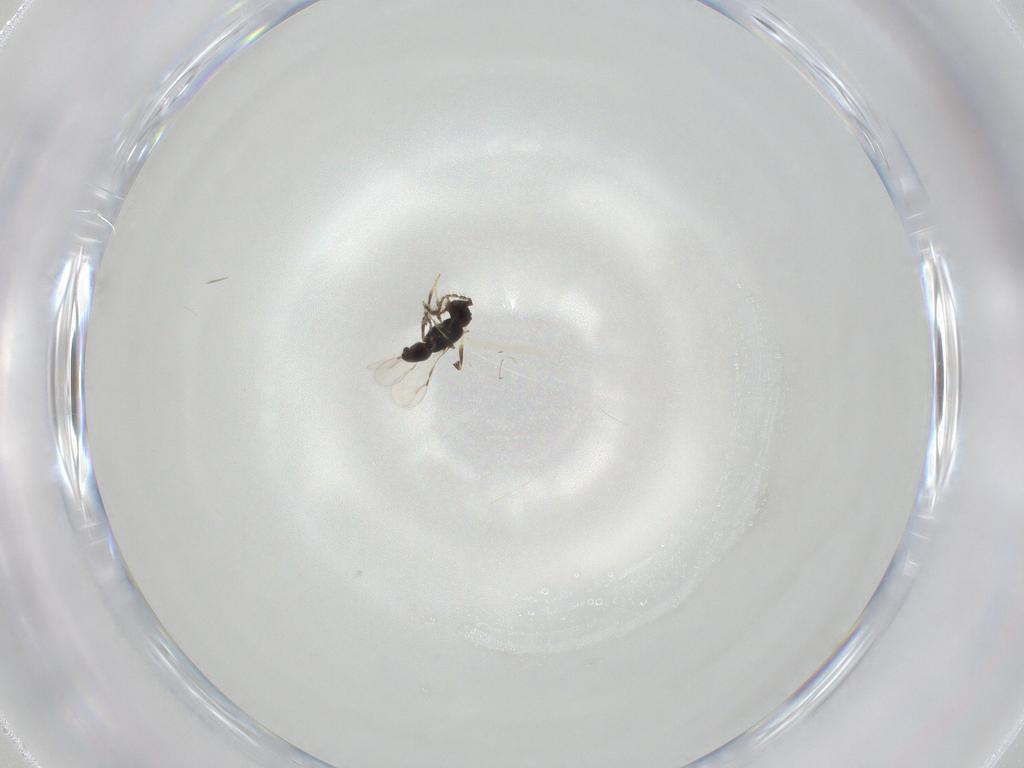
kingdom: Animalia
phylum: Arthropoda
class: Insecta
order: Hymenoptera
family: Ceraphronidae
